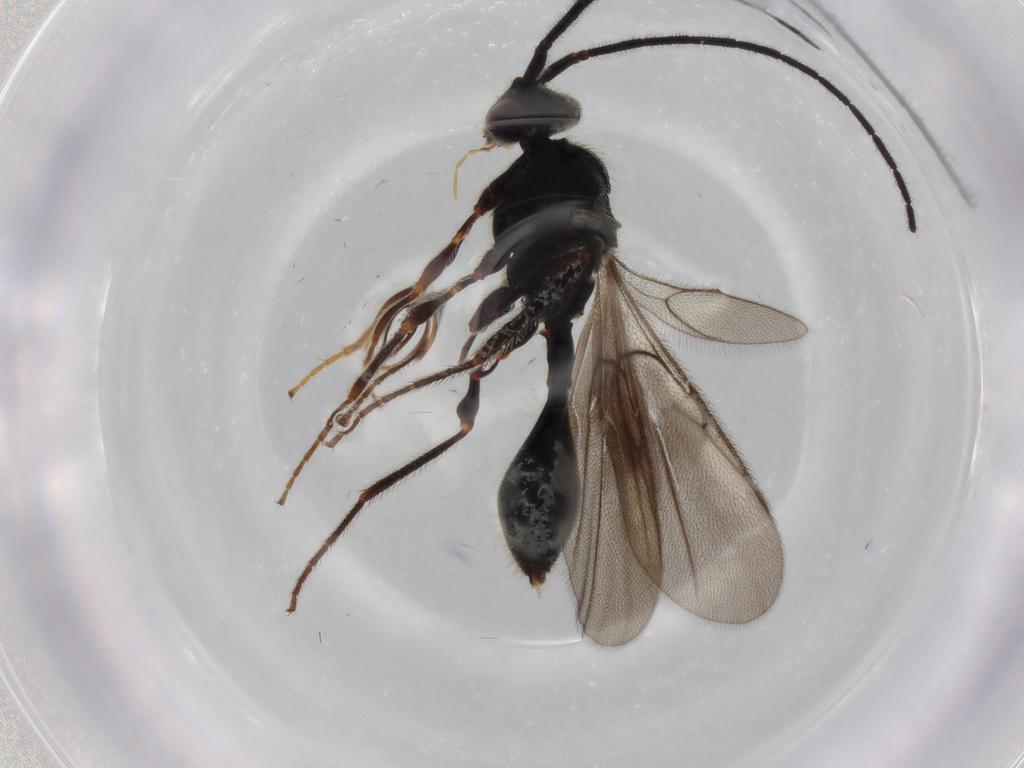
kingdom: Animalia
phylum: Arthropoda
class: Insecta
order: Hymenoptera
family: Diapriidae
